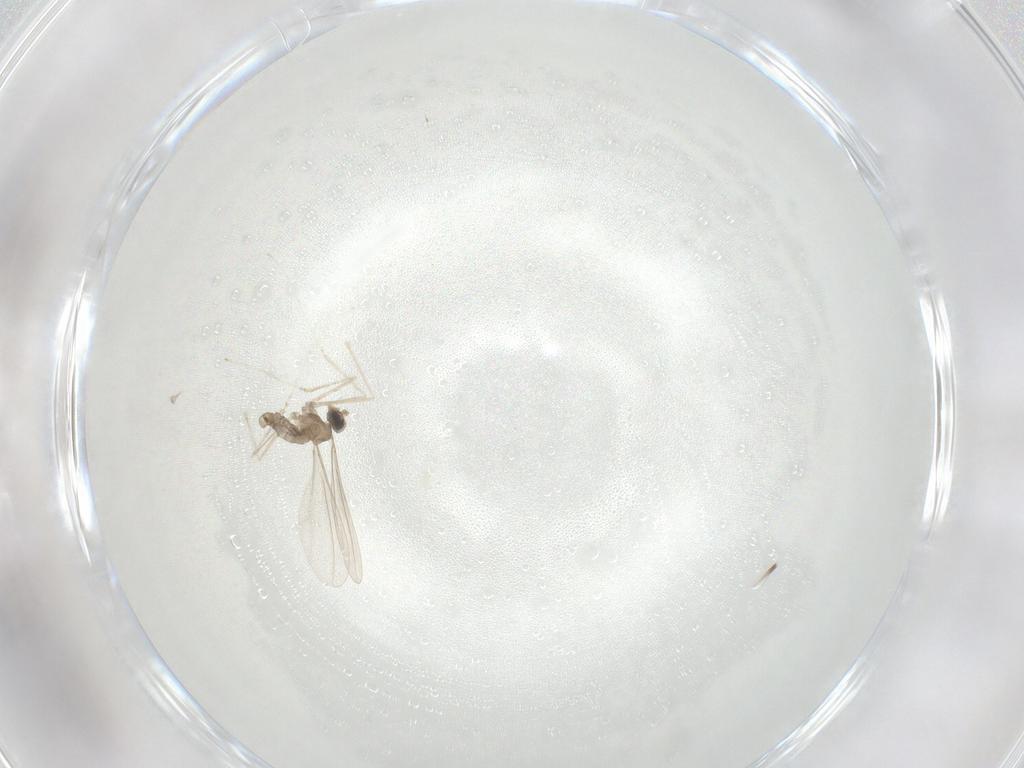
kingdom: Animalia
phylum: Arthropoda
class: Insecta
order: Diptera
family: Cecidomyiidae
